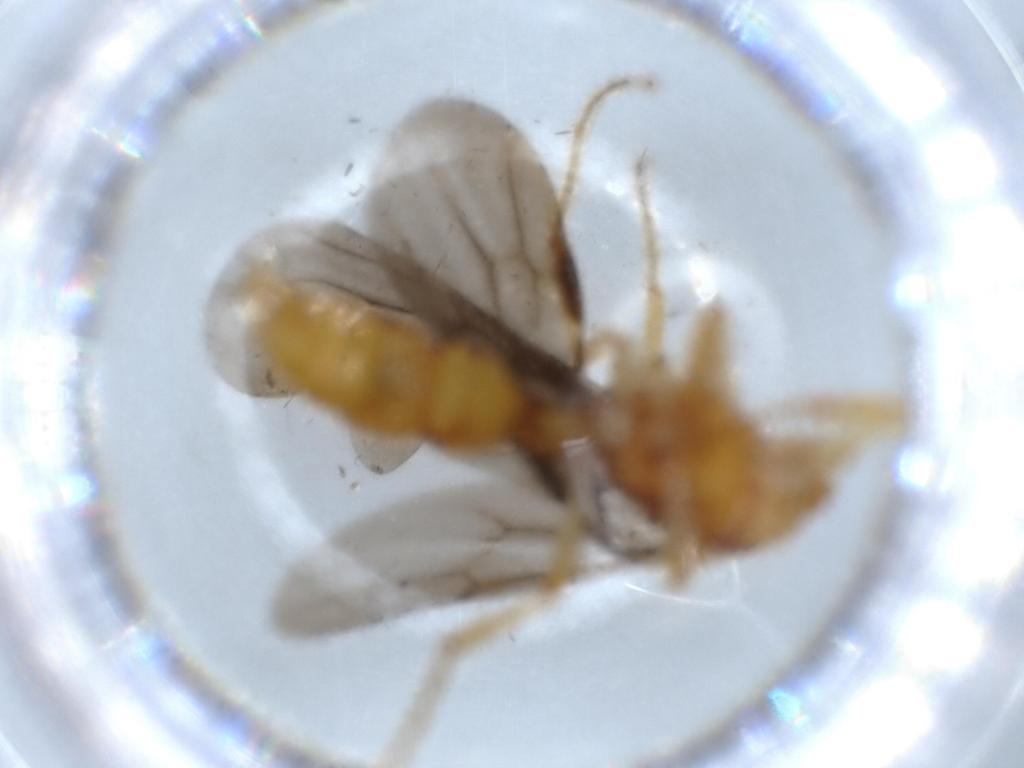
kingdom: Animalia
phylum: Arthropoda
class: Insecta
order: Hymenoptera
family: Formicidae
